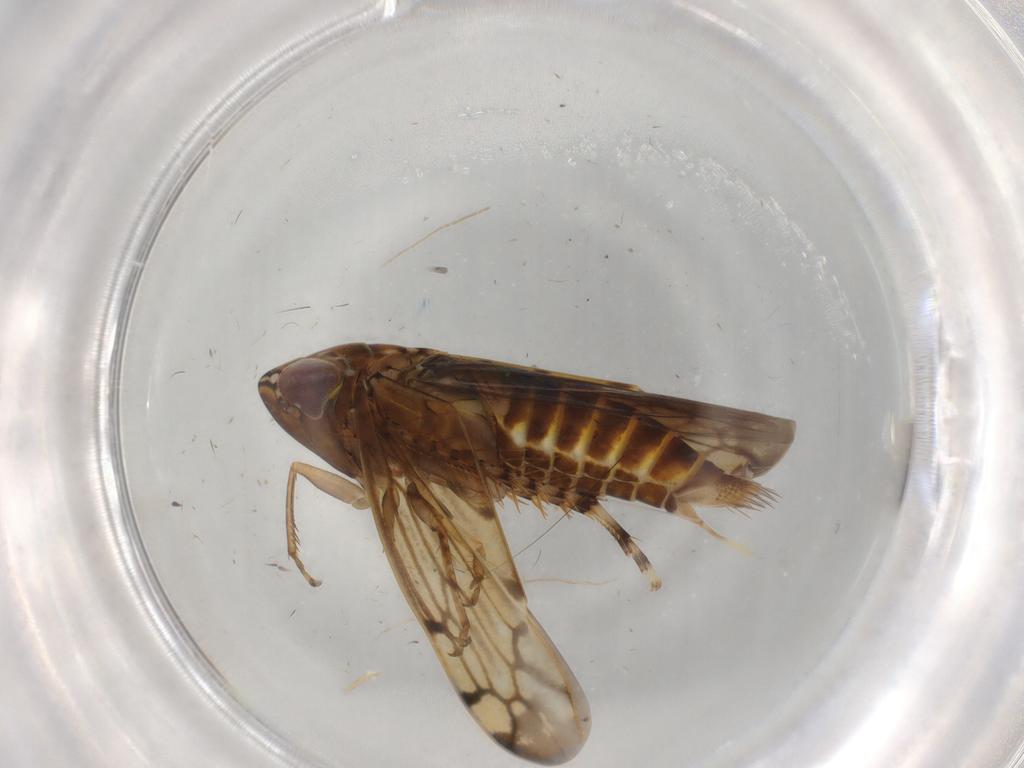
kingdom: Animalia
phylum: Arthropoda
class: Insecta
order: Hemiptera
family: Cicadellidae
